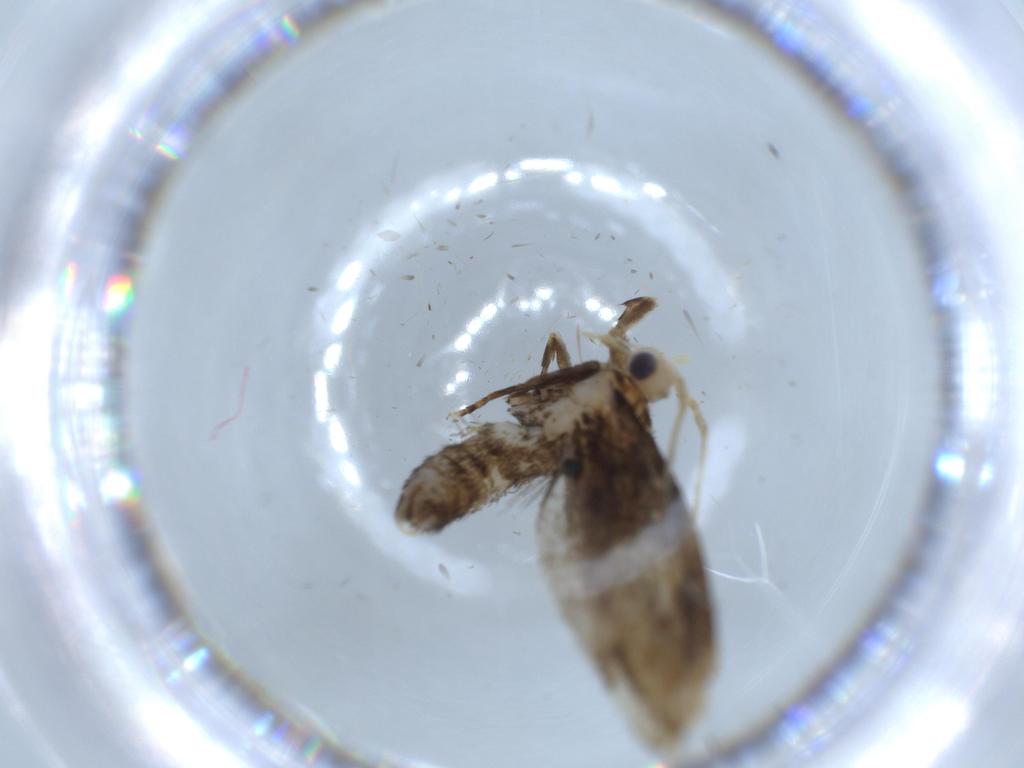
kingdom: Animalia
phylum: Arthropoda
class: Insecta
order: Lepidoptera
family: Dryadaulidae
